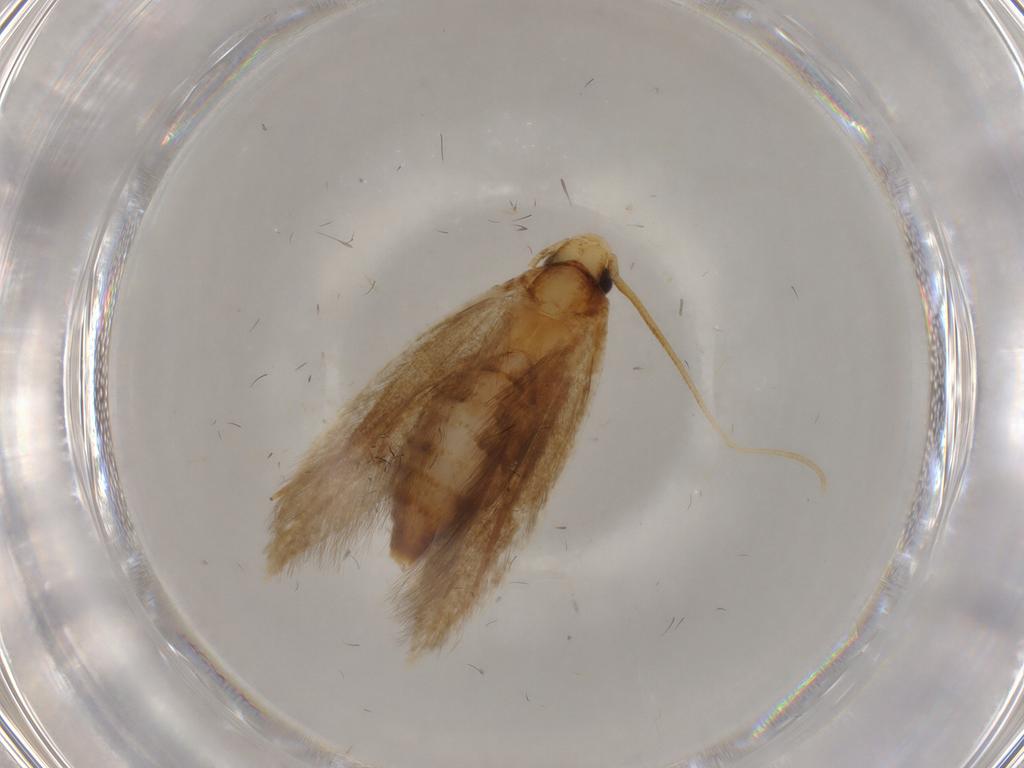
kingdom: Animalia
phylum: Arthropoda
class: Insecta
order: Lepidoptera
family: Tineidae
